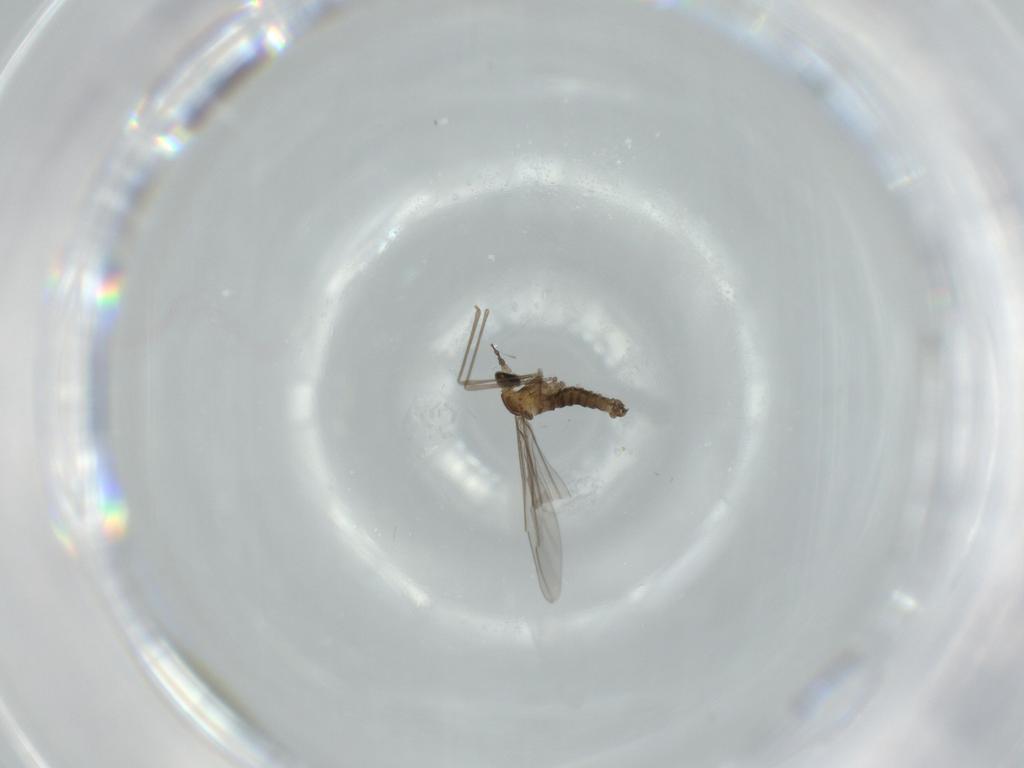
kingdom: Animalia
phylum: Arthropoda
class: Insecta
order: Diptera
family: Cecidomyiidae
